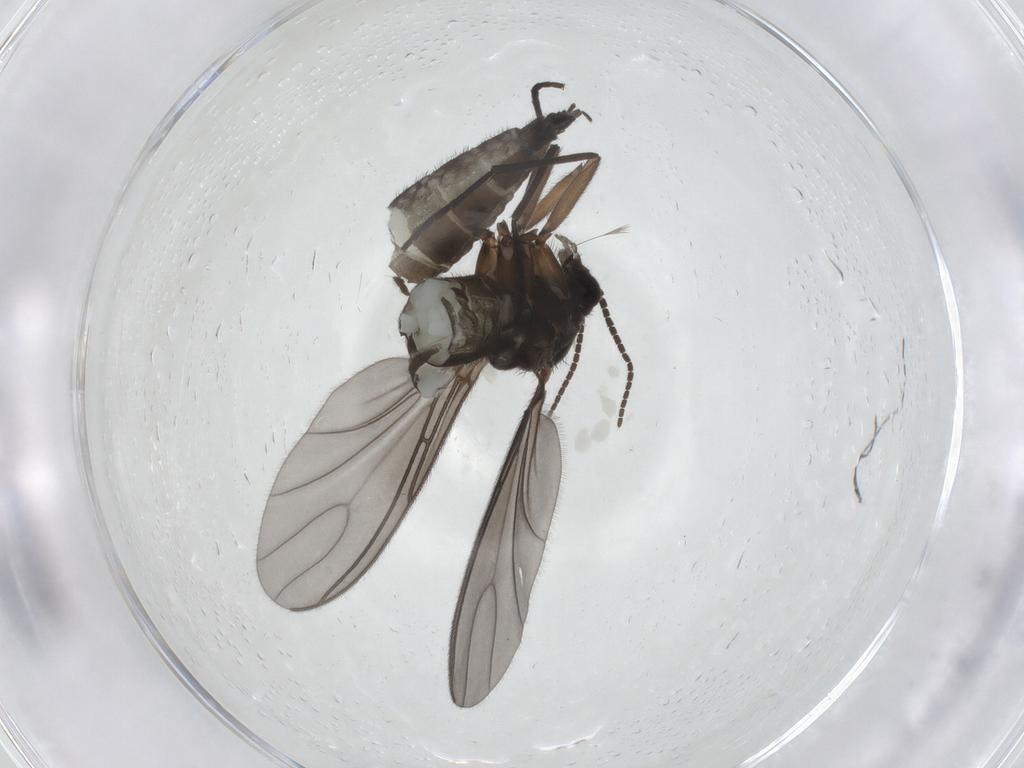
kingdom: Animalia
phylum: Arthropoda
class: Insecta
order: Diptera
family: Sciaridae
